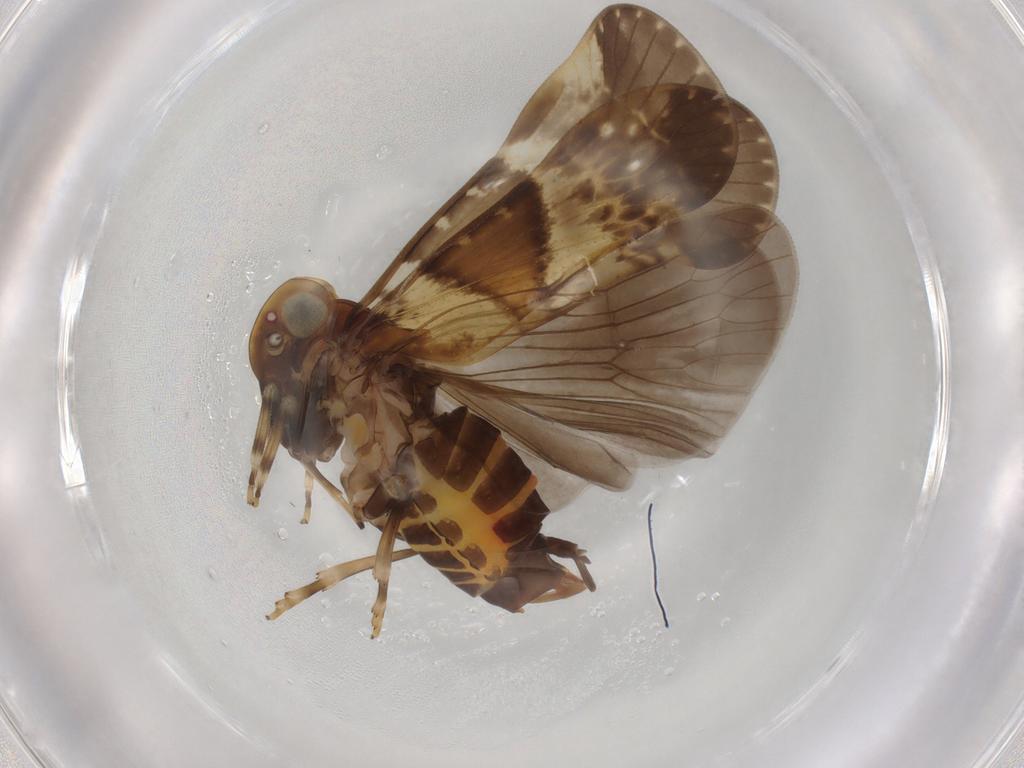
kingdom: Animalia
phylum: Arthropoda
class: Insecta
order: Hemiptera
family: Cixiidae
